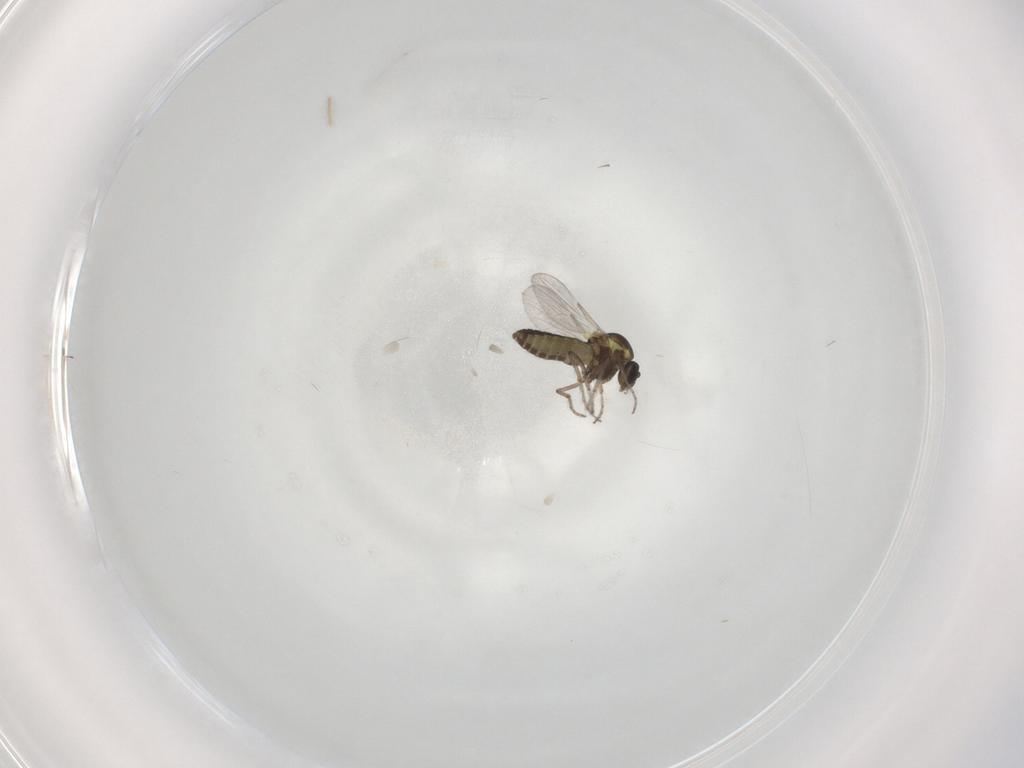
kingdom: Animalia
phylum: Arthropoda
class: Insecta
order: Diptera
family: Ceratopogonidae
